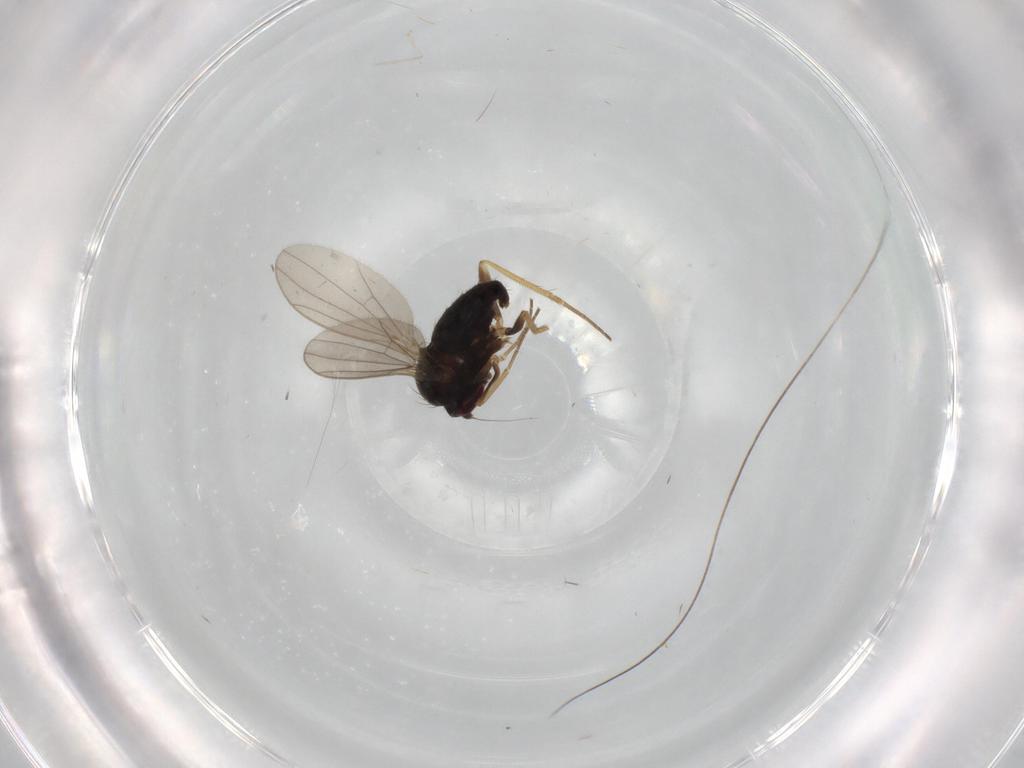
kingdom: Animalia
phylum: Arthropoda
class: Insecta
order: Diptera
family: Cecidomyiidae
